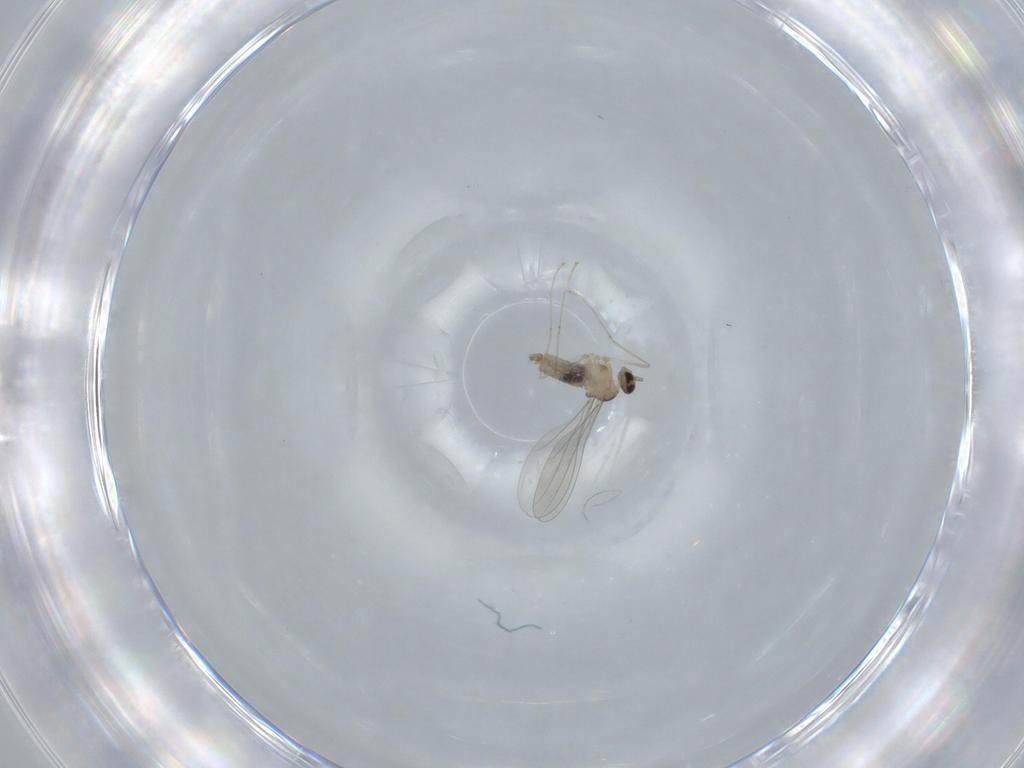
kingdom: Animalia
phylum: Arthropoda
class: Insecta
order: Diptera
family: Cecidomyiidae
